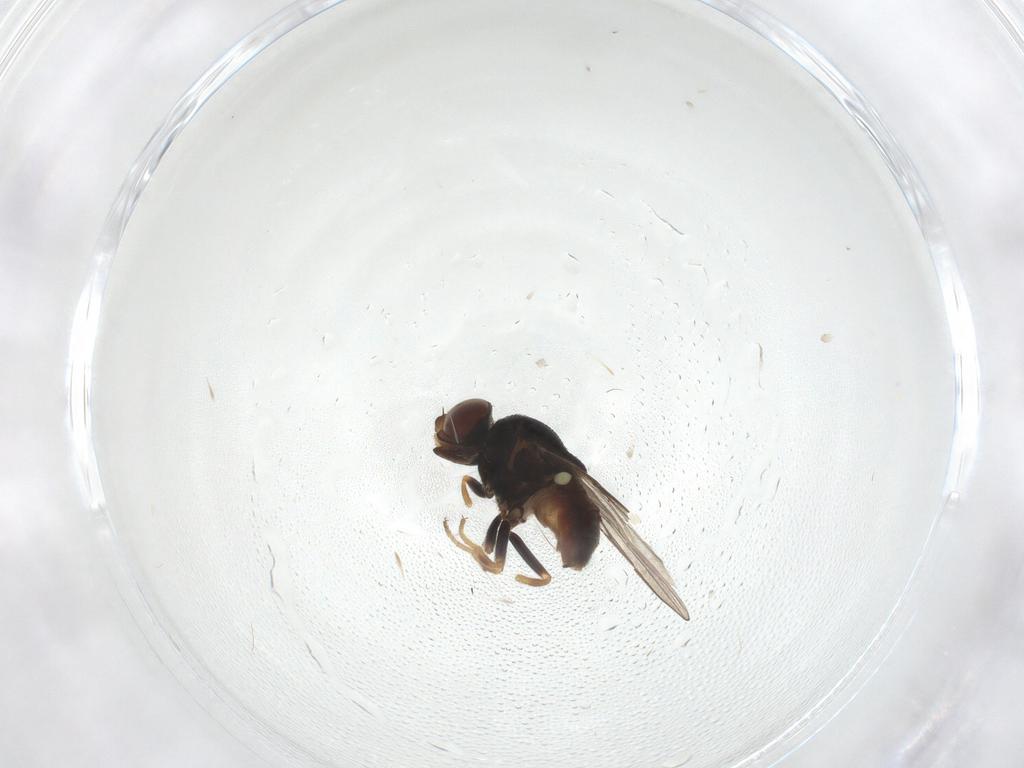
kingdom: Animalia
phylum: Arthropoda
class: Insecta
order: Diptera
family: Chloropidae
